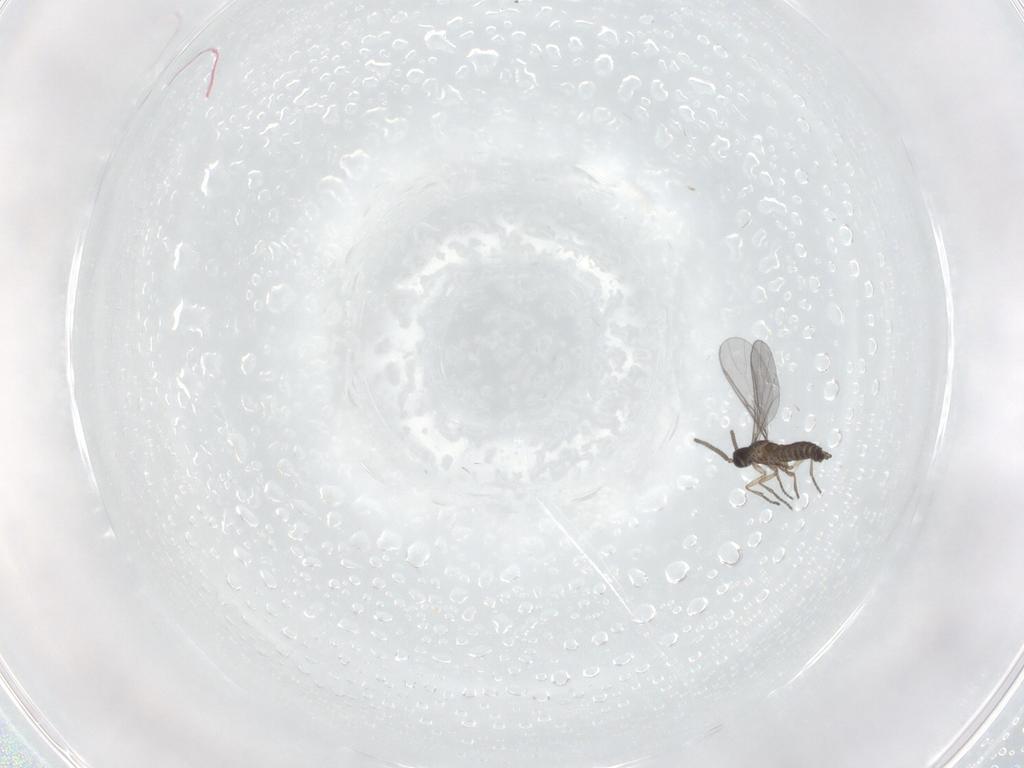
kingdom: Animalia
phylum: Arthropoda
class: Insecta
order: Diptera
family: Sciaridae
